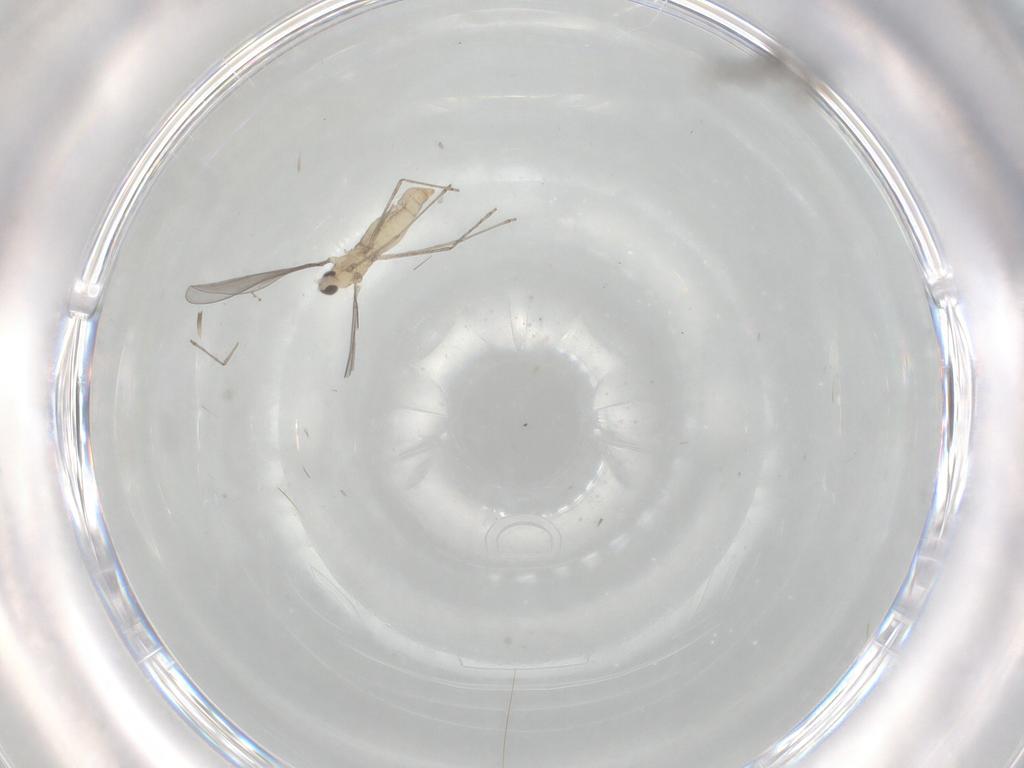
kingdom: Animalia
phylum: Arthropoda
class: Insecta
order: Diptera
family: Cecidomyiidae
